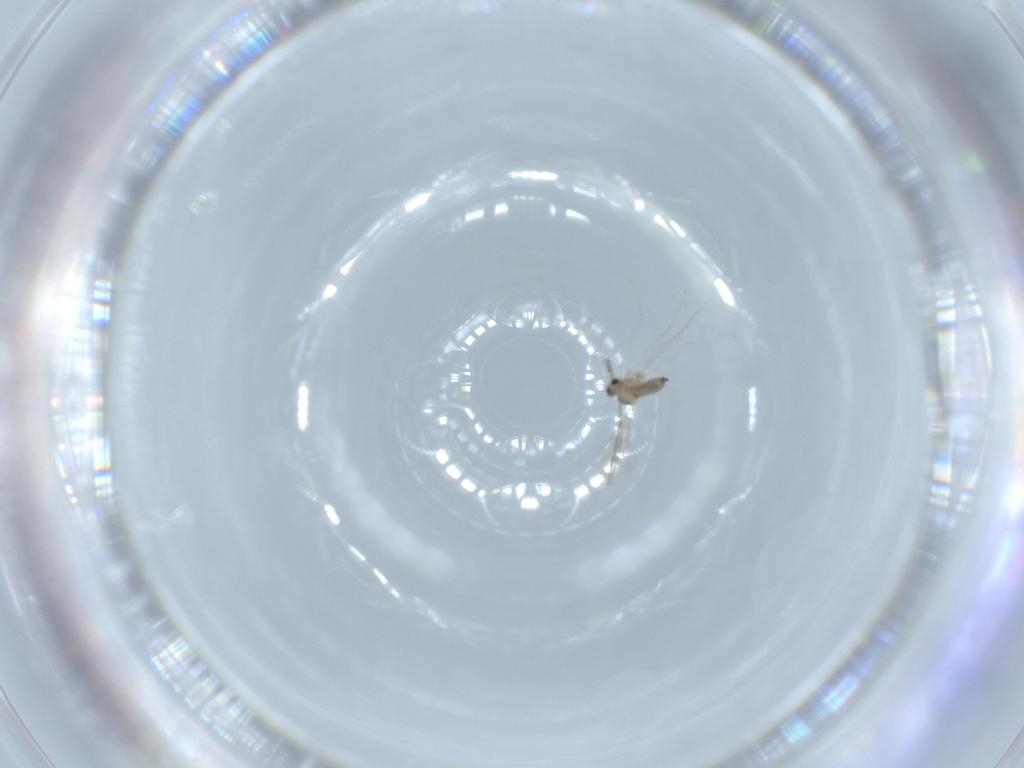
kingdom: Animalia
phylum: Arthropoda
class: Insecta
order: Diptera
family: Cecidomyiidae
